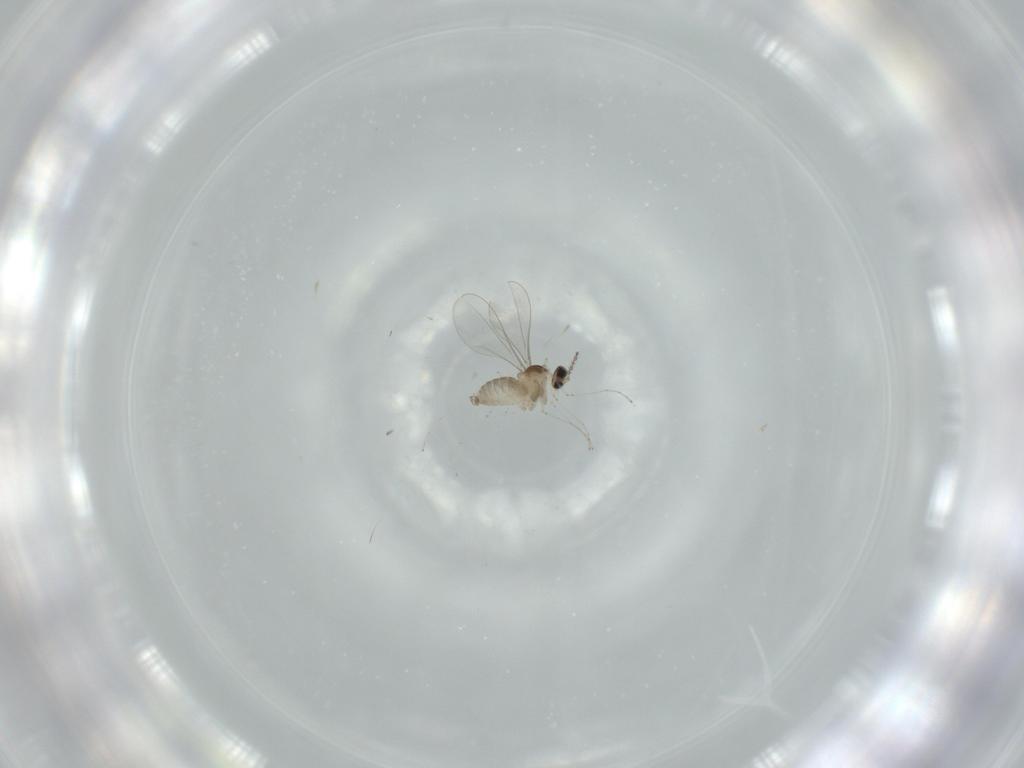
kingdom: Animalia
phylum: Arthropoda
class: Insecta
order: Diptera
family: Cecidomyiidae
